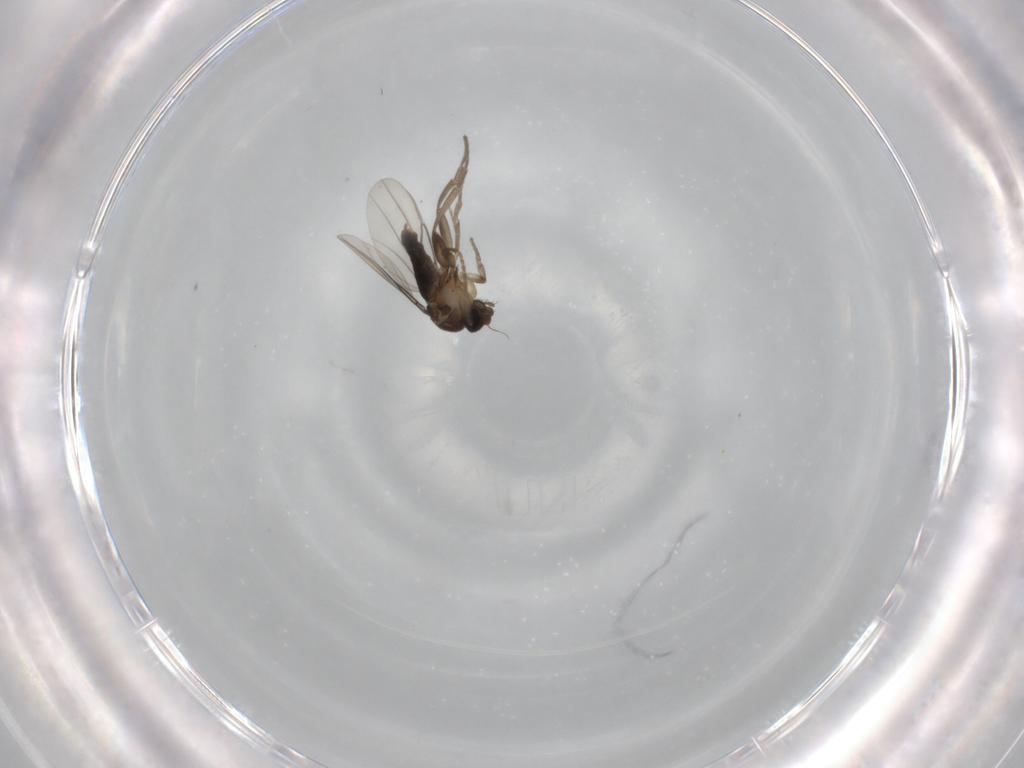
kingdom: Animalia
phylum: Arthropoda
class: Insecta
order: Diptera
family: Phoridae
